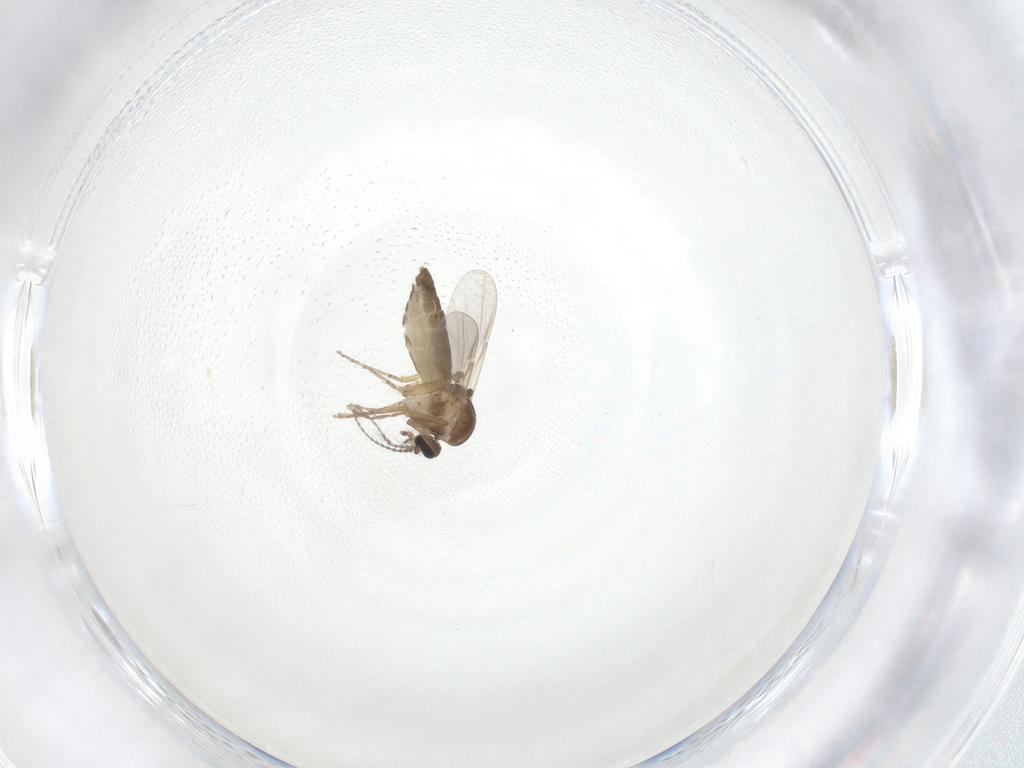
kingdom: Animalia
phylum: Arthropoda
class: Insecta
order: Diptera
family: Ceratopogonidae
